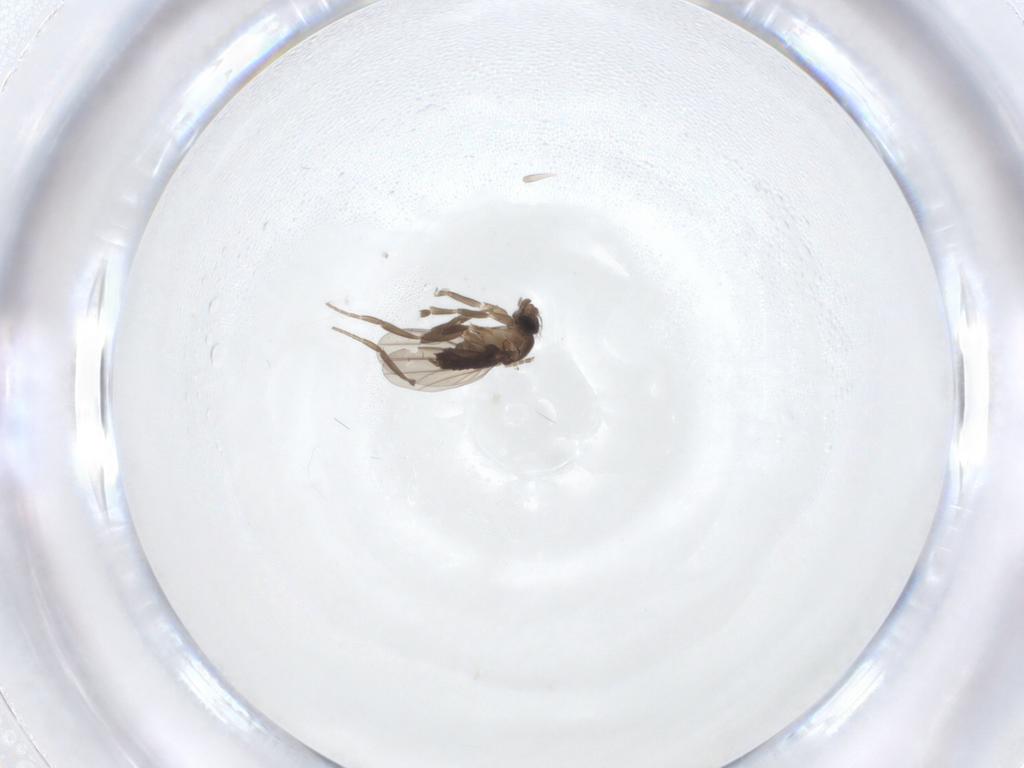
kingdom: Animalia
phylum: Arthropoda
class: Insecta
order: Diptera
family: Phoridae
